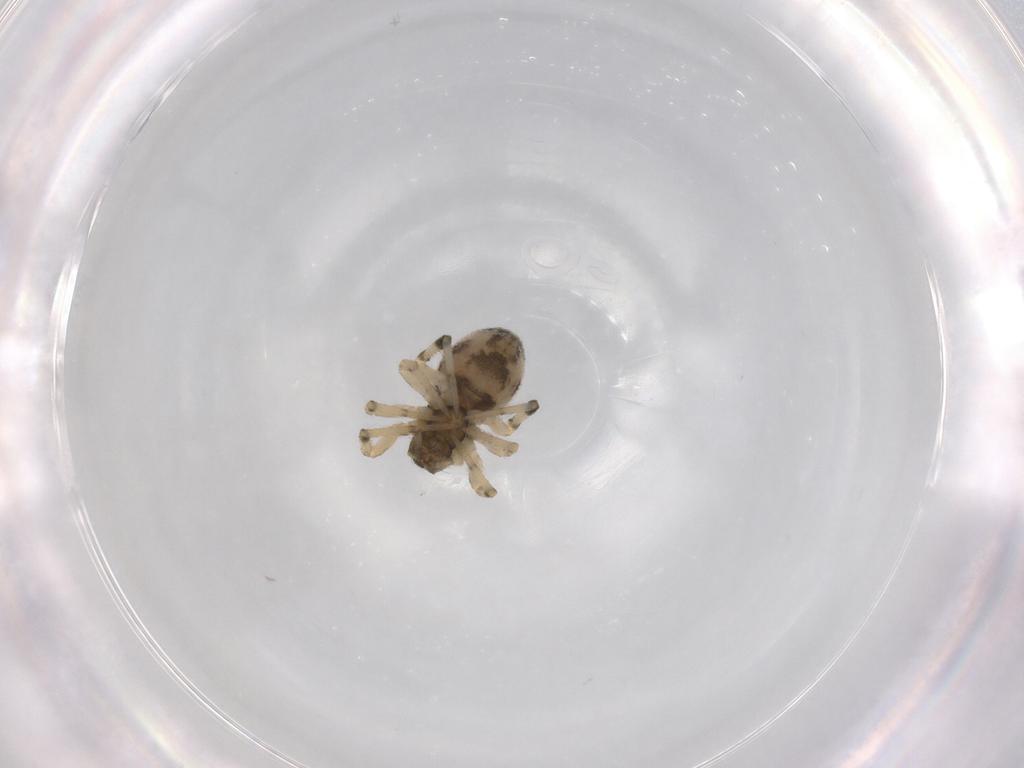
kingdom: Animalia
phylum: Arthropoda
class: Arachnida
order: Araneae
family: Theridiidae
